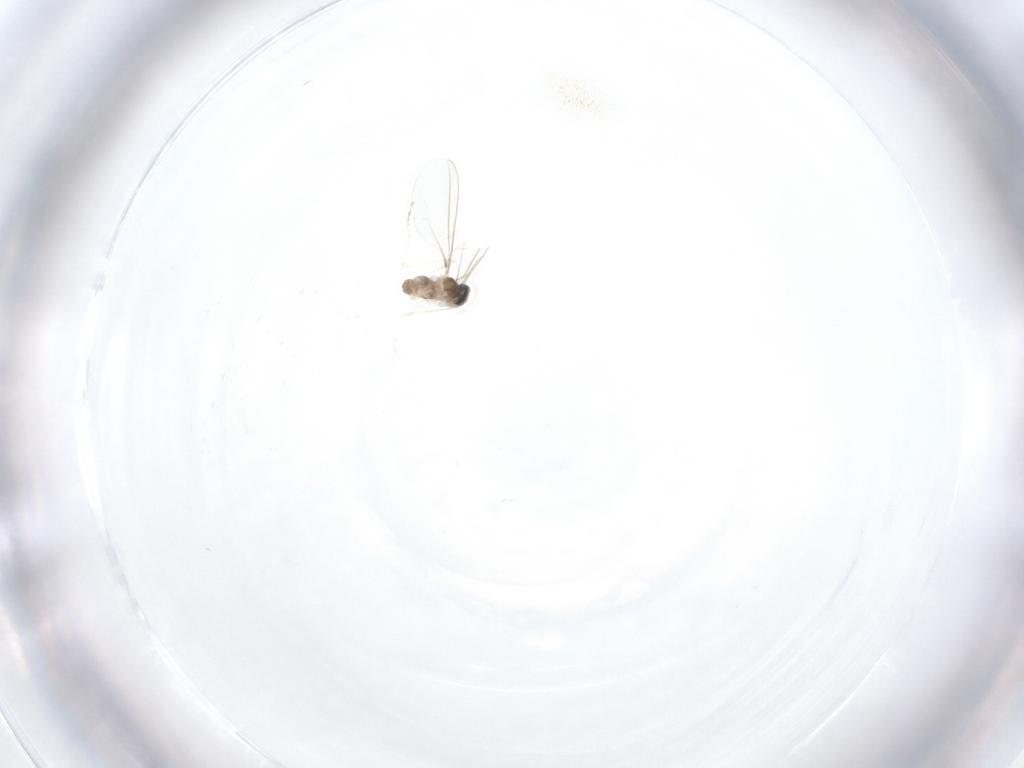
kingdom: Animalia
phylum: Arthropoda
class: Insecta
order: Diptera
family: Cecidomyiidae
